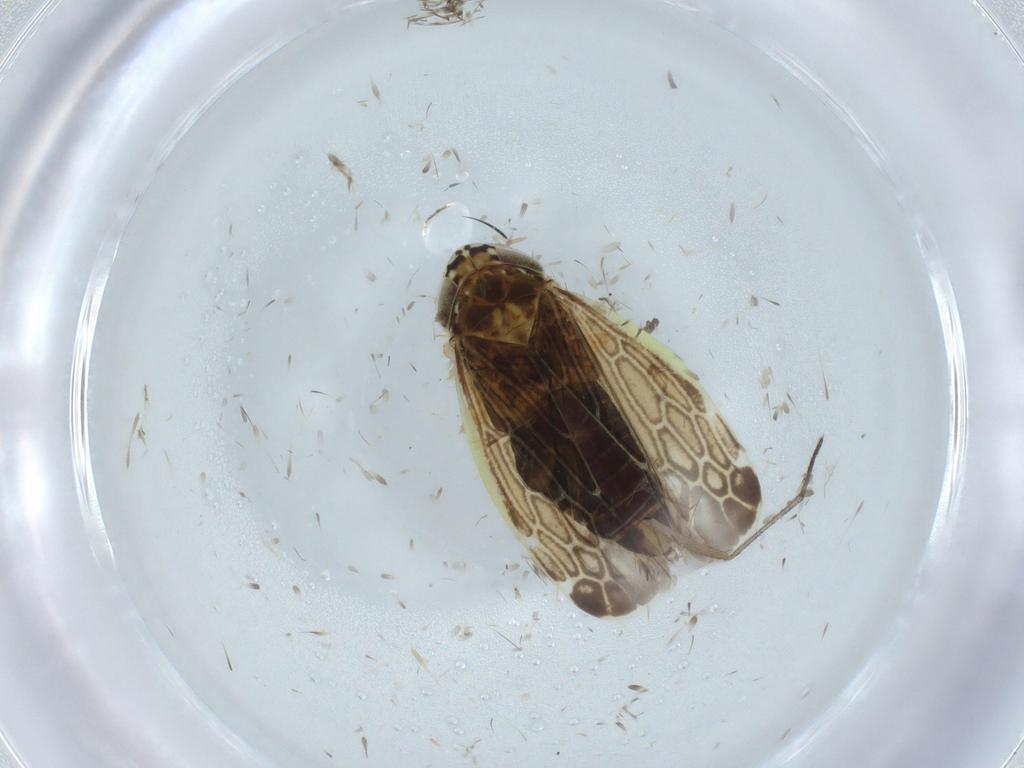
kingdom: Animalia
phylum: Arthropoda
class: Insecta
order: Hemiptera
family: Cicadellidae
